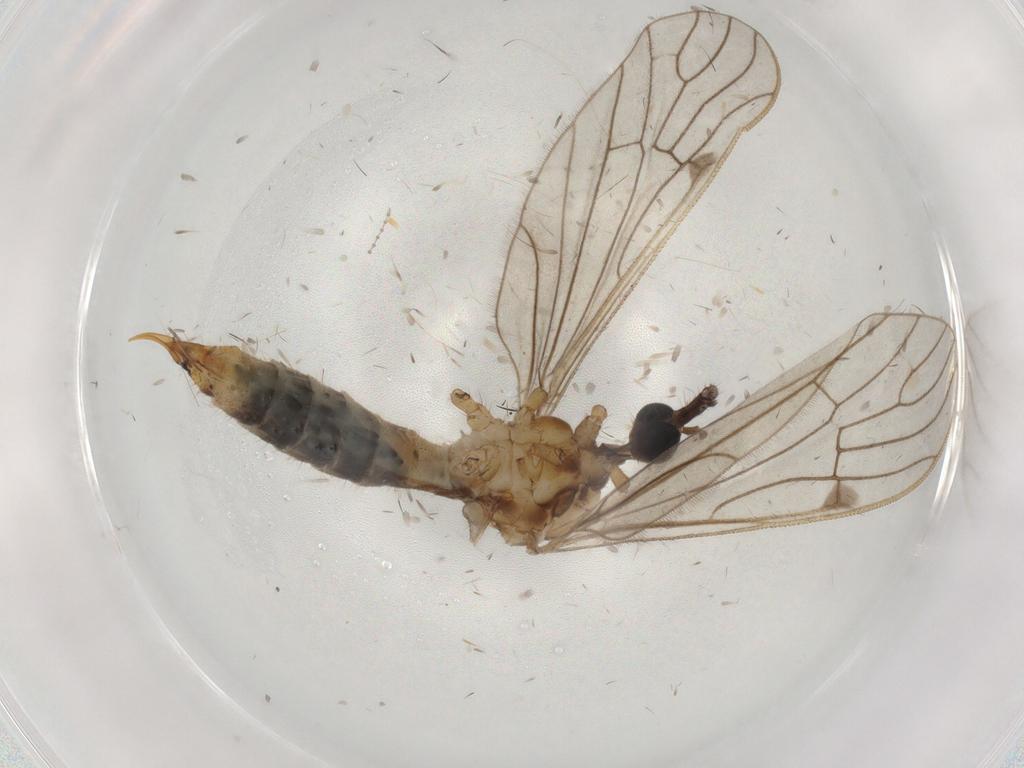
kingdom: Animalia
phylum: Arthropoda
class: Insecta
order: Diptera
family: Limoniidae
